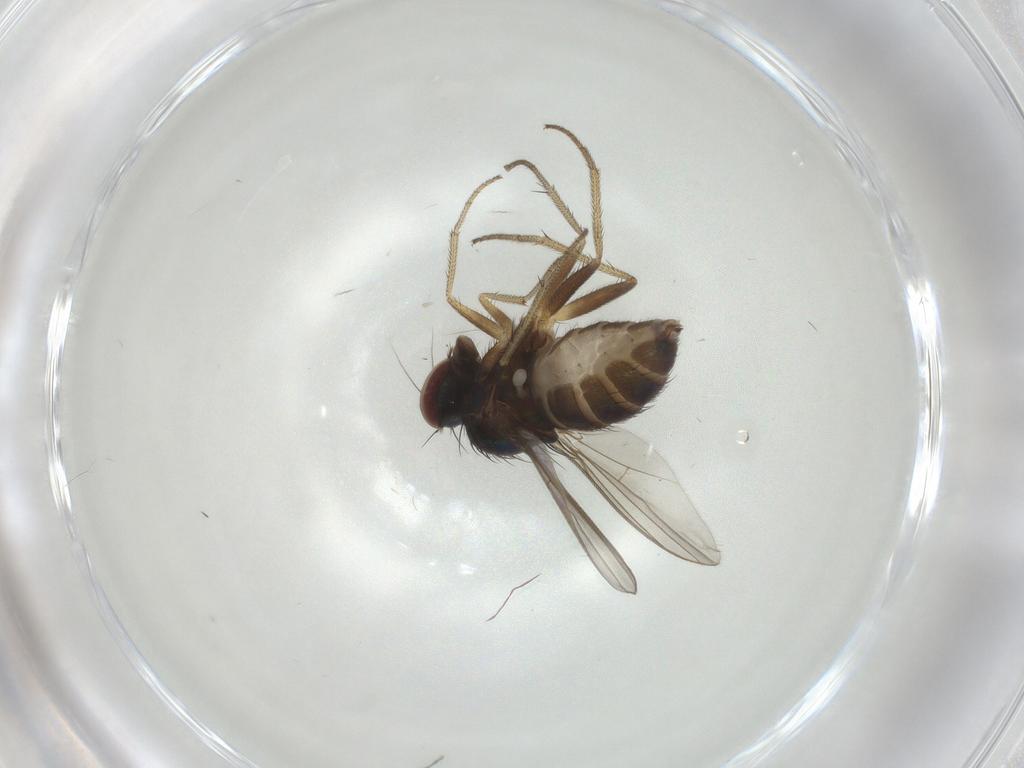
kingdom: Animalia
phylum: Arthropoda
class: Insecta
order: Diptera
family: Dolichopodidae
